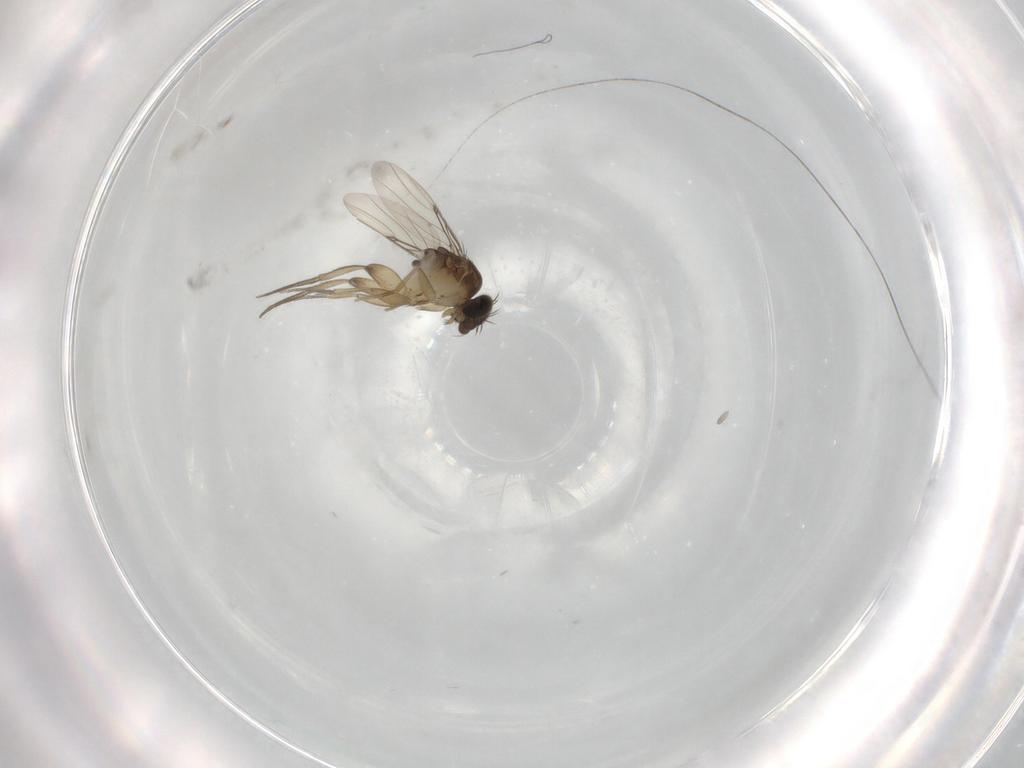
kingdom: Animalia
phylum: Arthropoda
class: Insecta
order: Diptera
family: Phoridae
